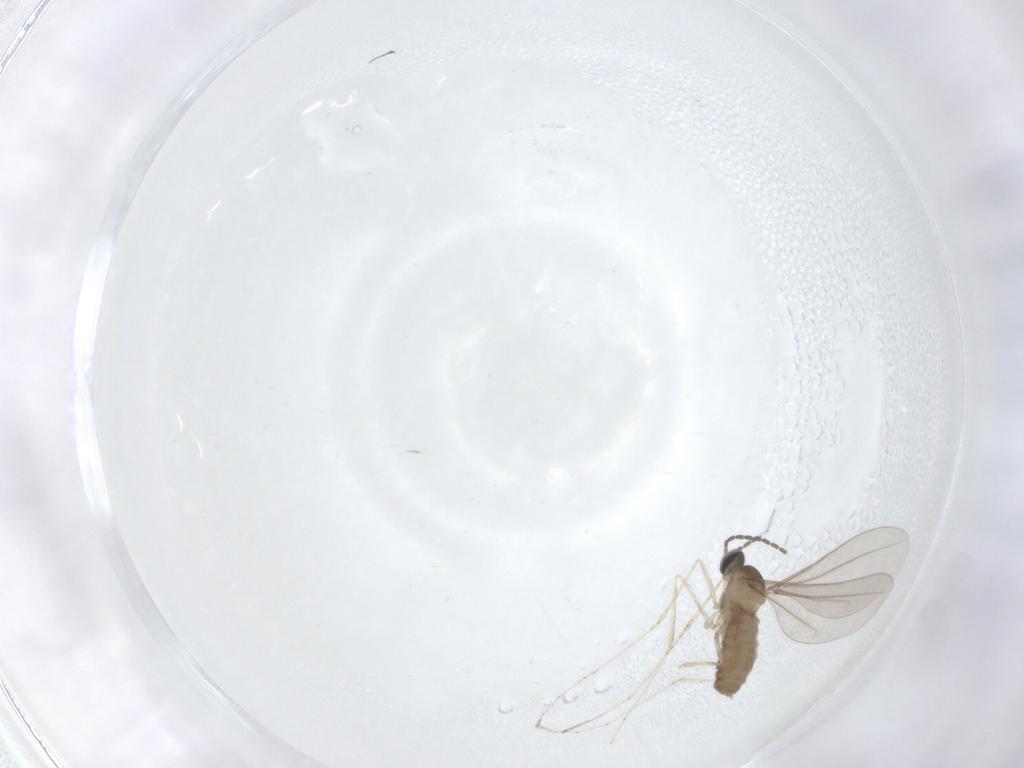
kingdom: Animalia
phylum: Arthropoda
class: Insecta
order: Diptera
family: Cecidomyiidae
